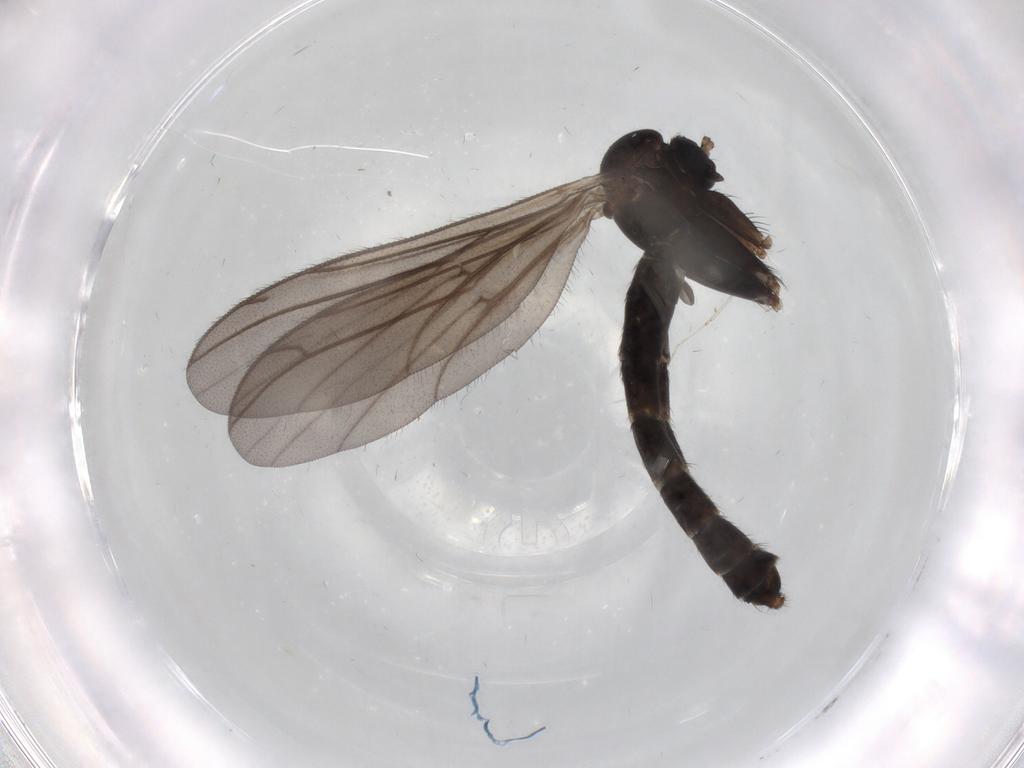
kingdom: Animalia
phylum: Arthropoda
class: Insecta
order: Diptera
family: Ditomyiidae
